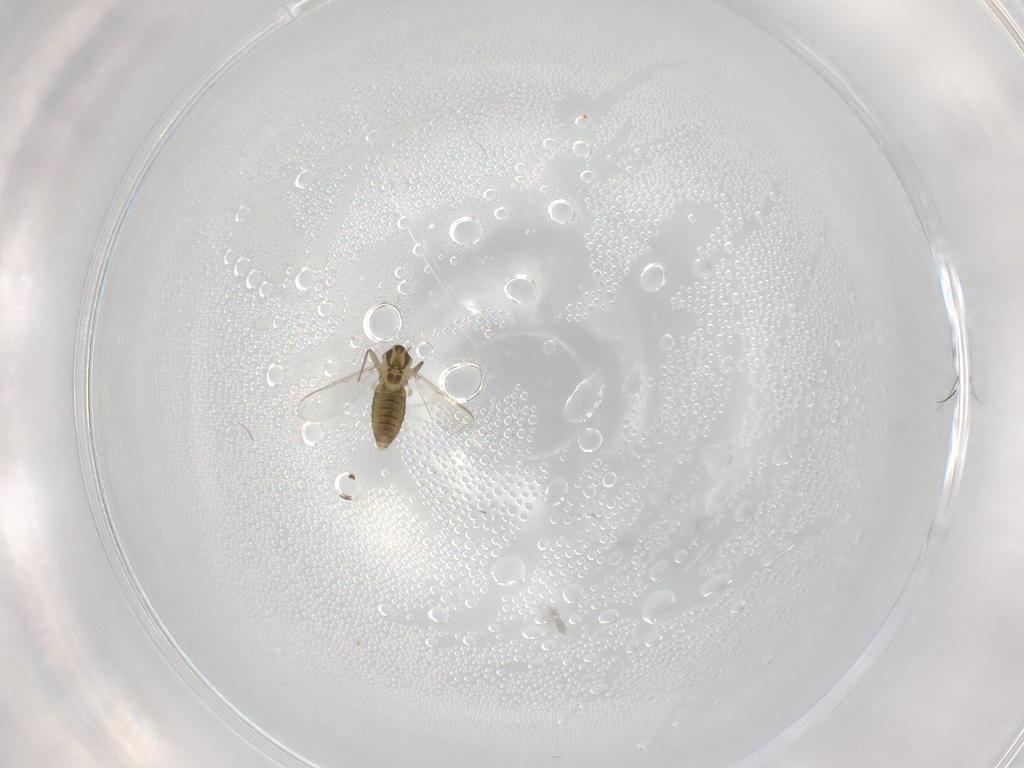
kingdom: Animalia
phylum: Arthropoda
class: Insecta
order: Diptera
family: Chironomidae
